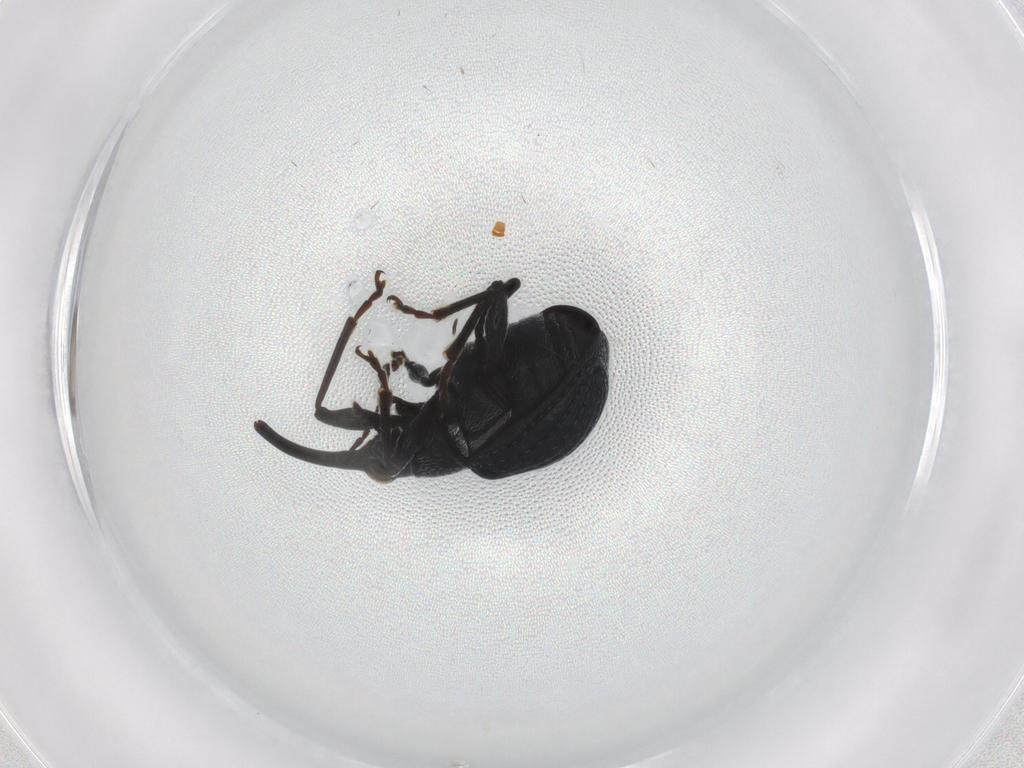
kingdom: Animalia
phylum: Arthropoda
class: Insecta
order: Coleoptera
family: Brentidae
